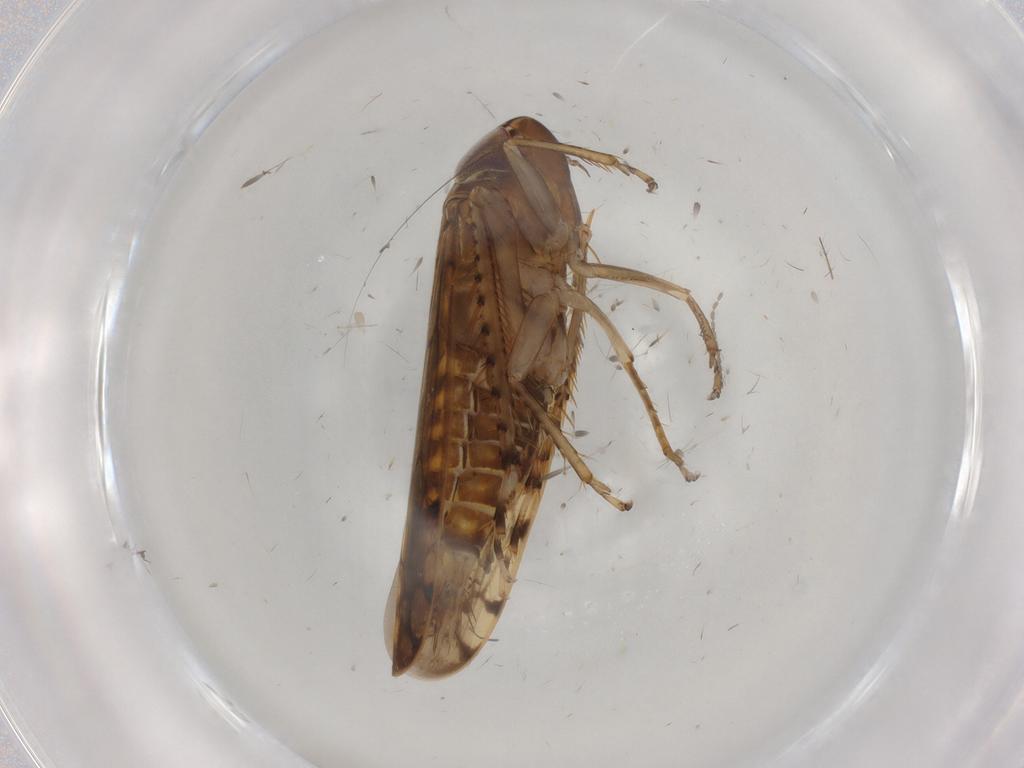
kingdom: Animalia
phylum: Arthropoda
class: Insecta
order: Hemiptera
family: Cicadellidae
